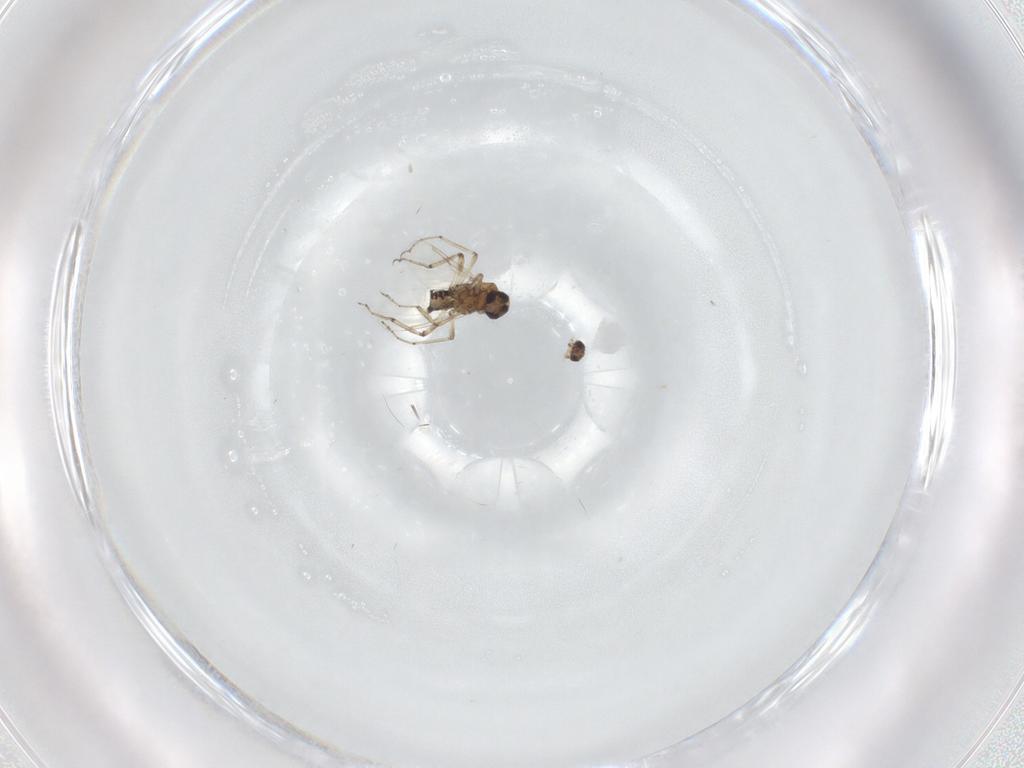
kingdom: Animalia
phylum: Arthropoda
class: Insecta
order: Diptera
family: Ceratopogonidae
